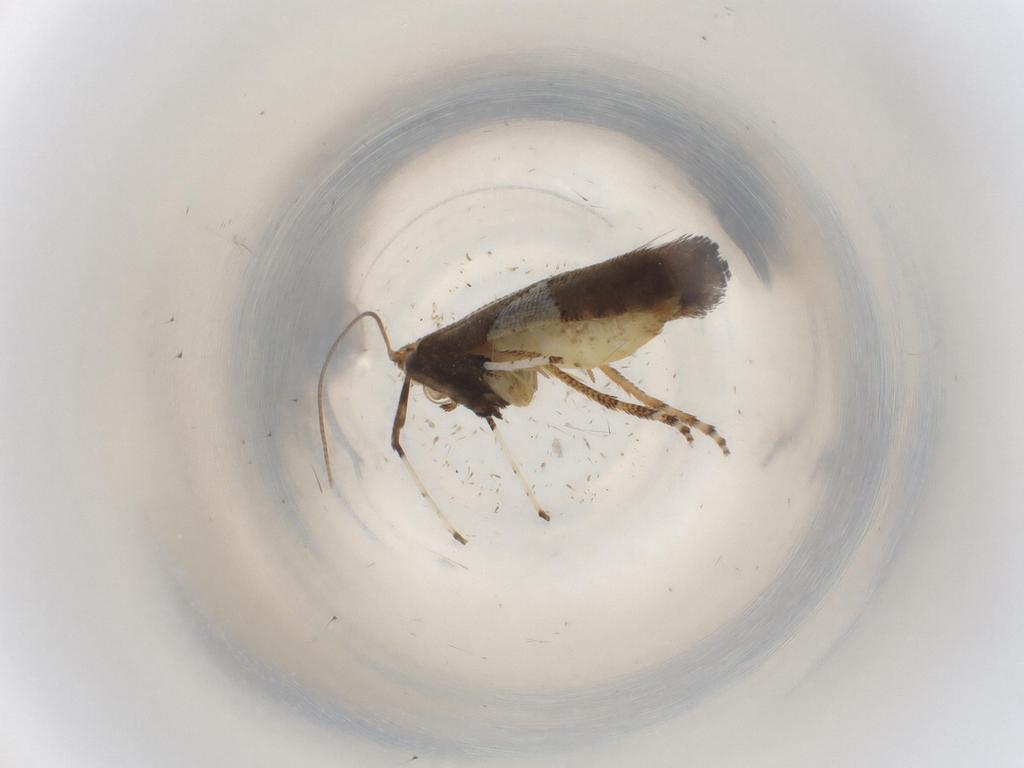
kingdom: Animalia
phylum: Arthropoda
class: Insecta
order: Lepidoptera
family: Gracillariidae
